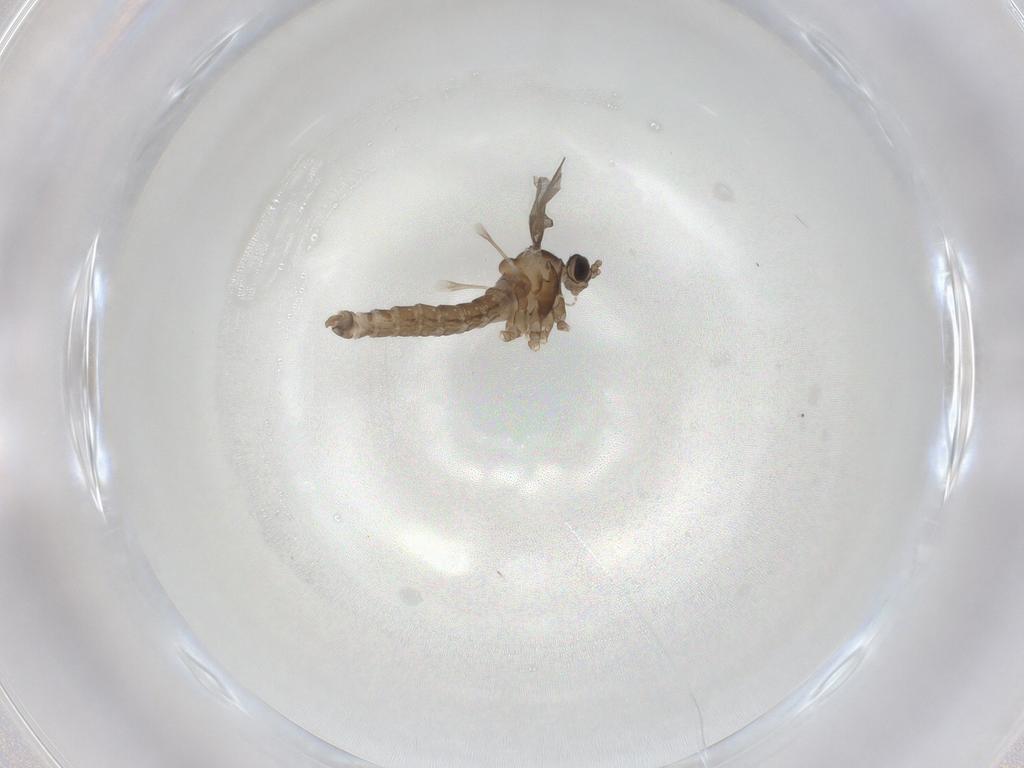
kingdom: Animalia
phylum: Arthropoda
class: Insecta
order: Diptera
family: Cecidomyiidae
